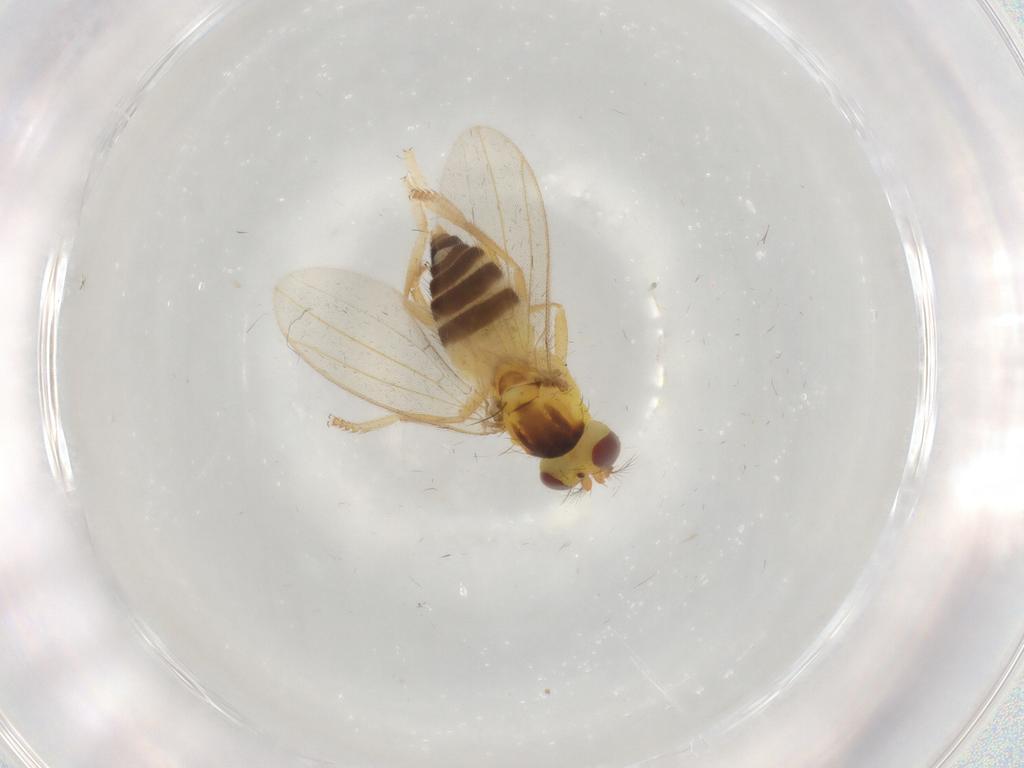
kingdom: Animalia
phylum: Arthropoda
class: Insecta
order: Diptera
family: Periscelididae
